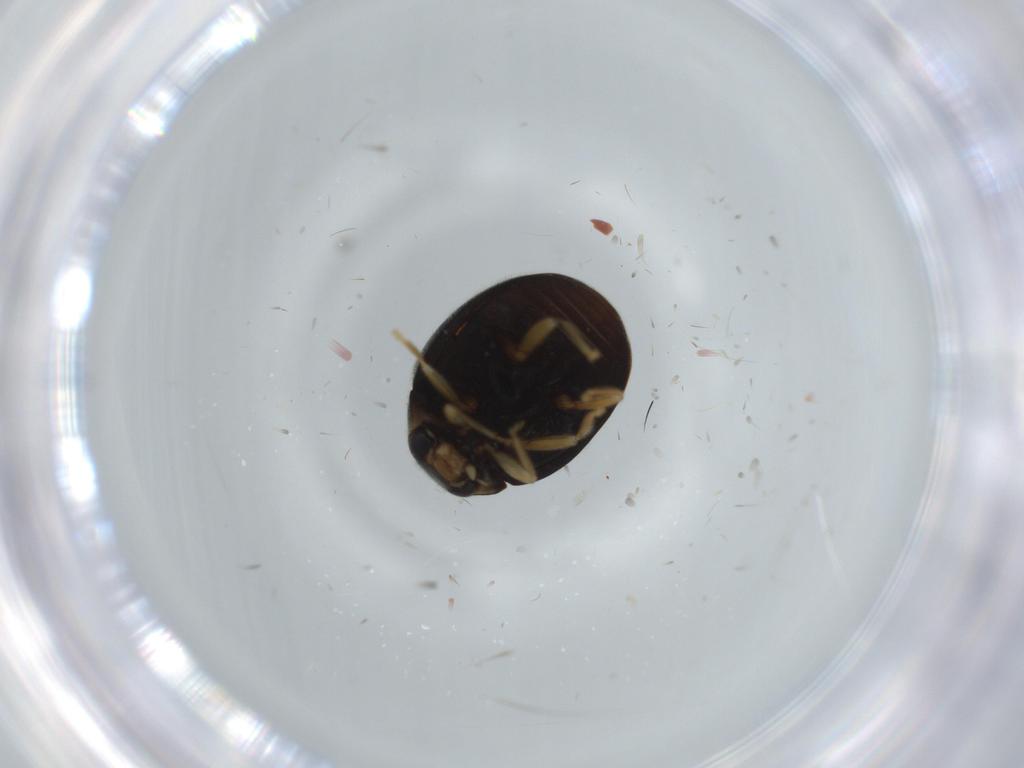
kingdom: Animalia
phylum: Arthropoda
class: Insecta
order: Coleoptera
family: Coccinellidae
